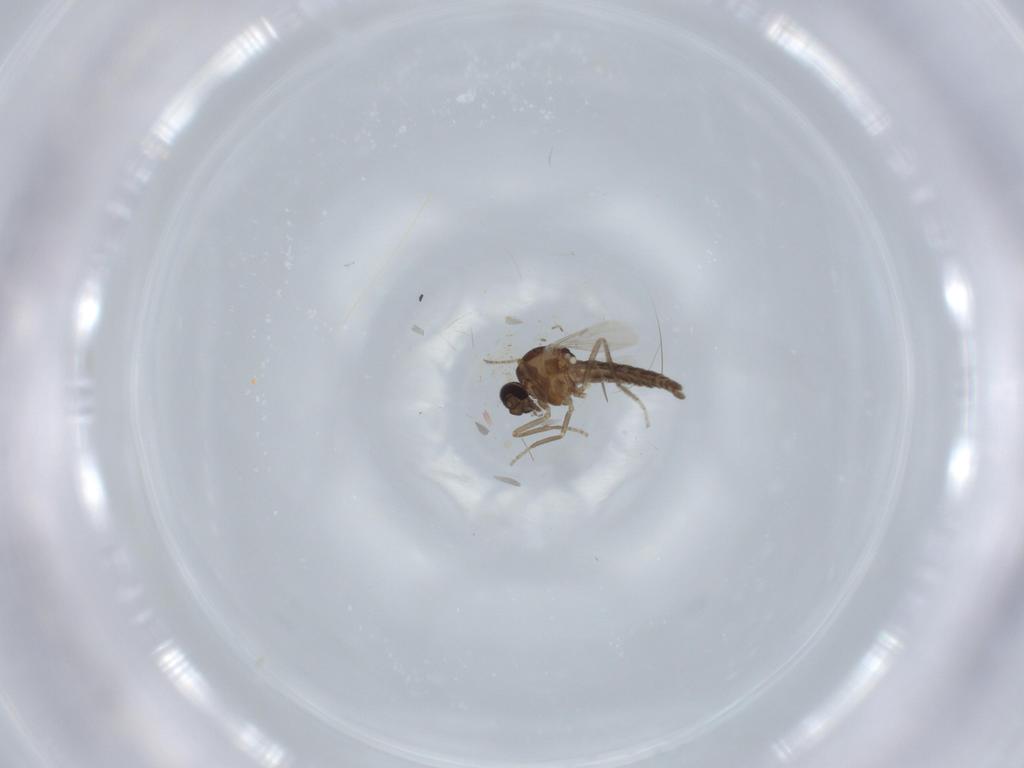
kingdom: Animalia
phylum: Arthropoda
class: Insecta
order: Diptera
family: Ceratopogonidae
